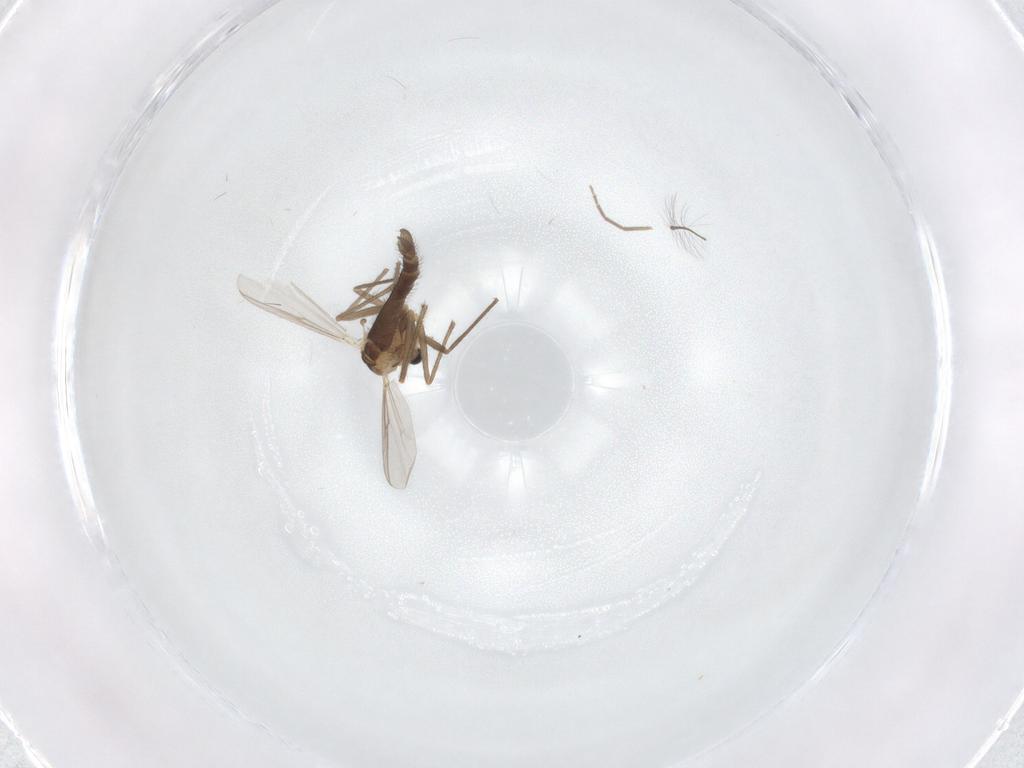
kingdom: Animalia
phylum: Arthropoda
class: Insecta
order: Diptera
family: Chironomidae
